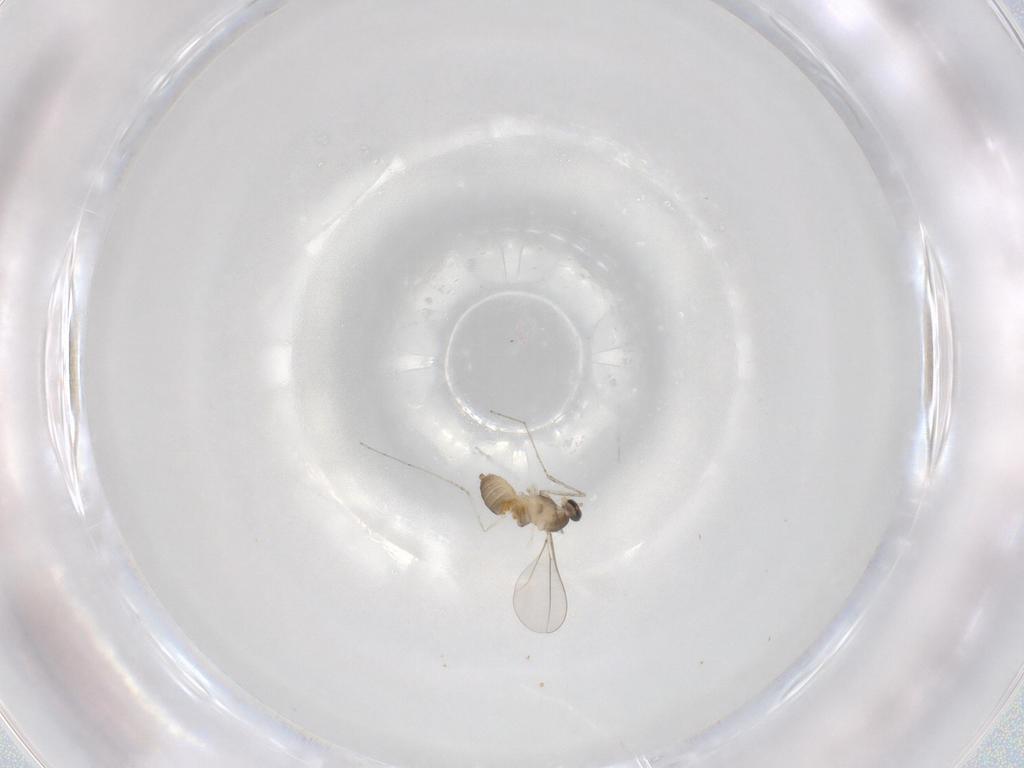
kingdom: Animalia
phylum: Arthropoda
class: Insecta
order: Diptera
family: Cecidomyiidae
